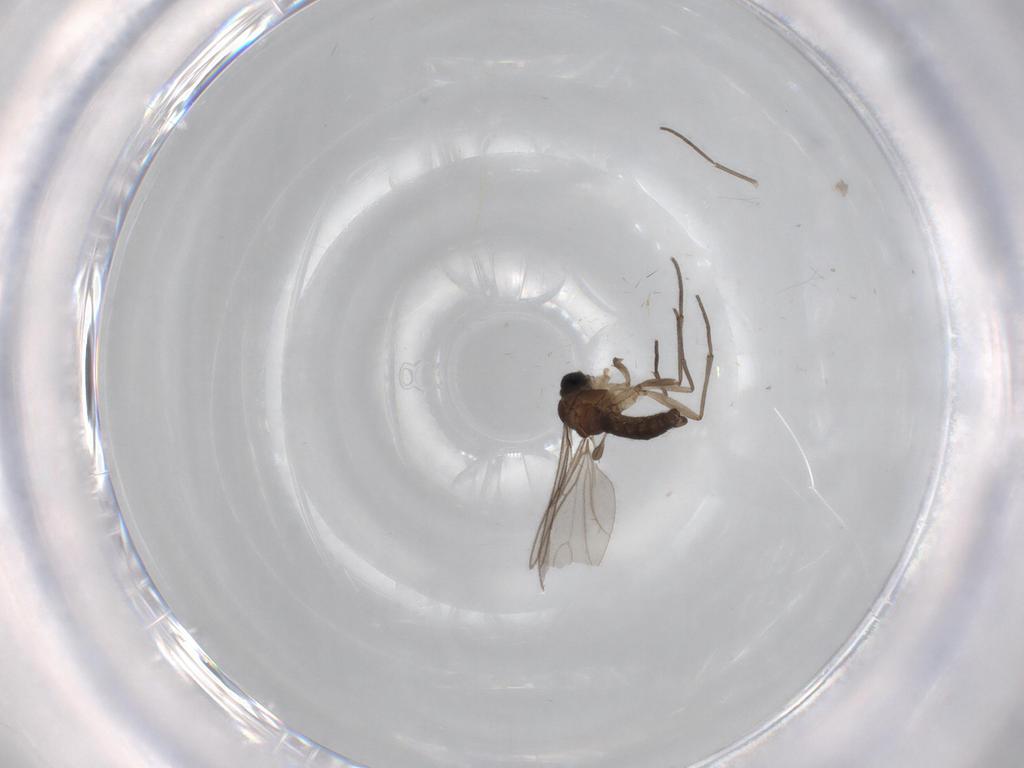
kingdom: Animalia
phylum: Arthropoda
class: Insecta
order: Diptera
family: Sciaridae
